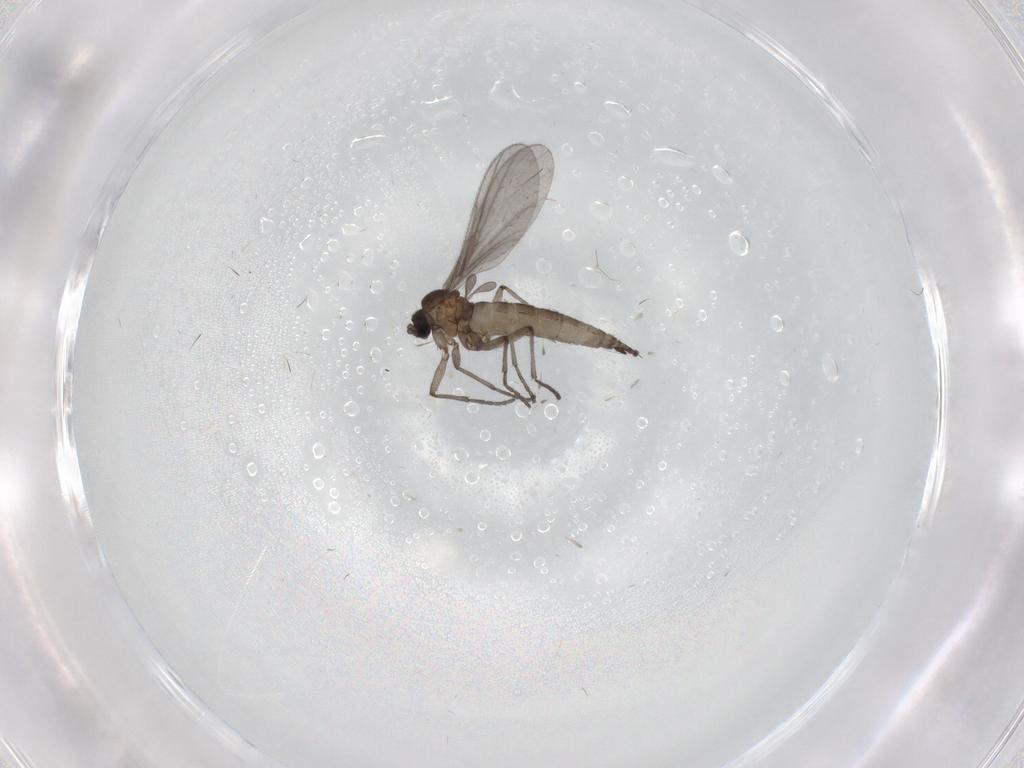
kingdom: Animalia
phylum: Arthropoda
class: Insecta
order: Diptera
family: Sciaridae
